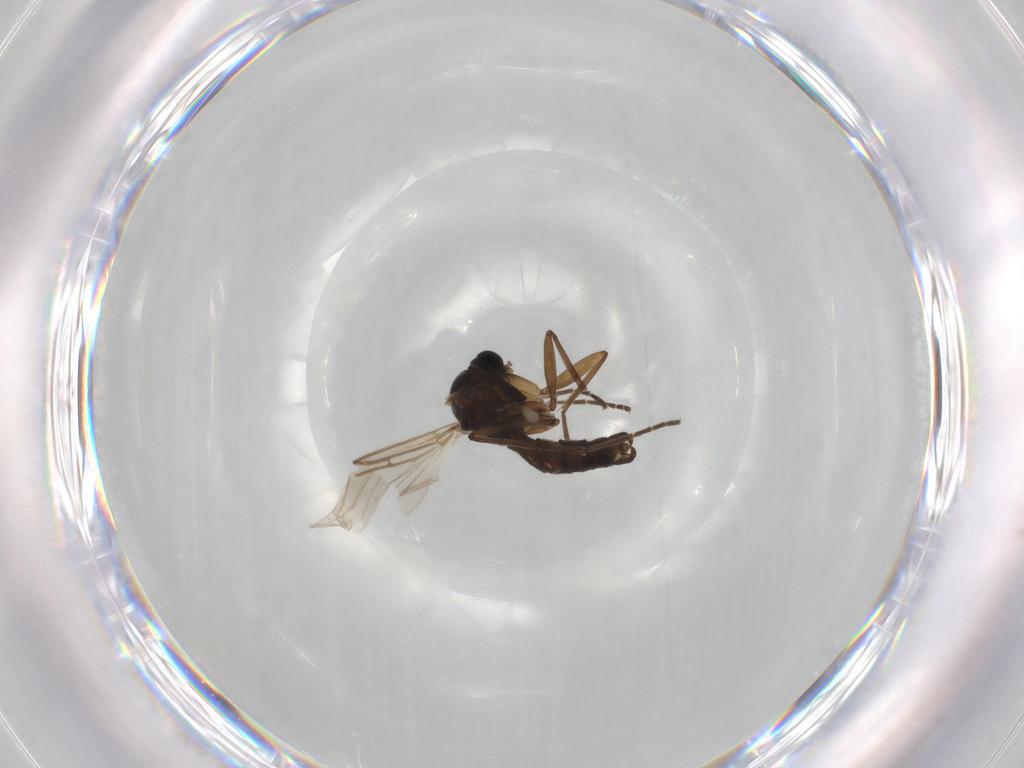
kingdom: Animalia
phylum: Arthropoda
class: Insecta
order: Diptera
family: Sciaridae
